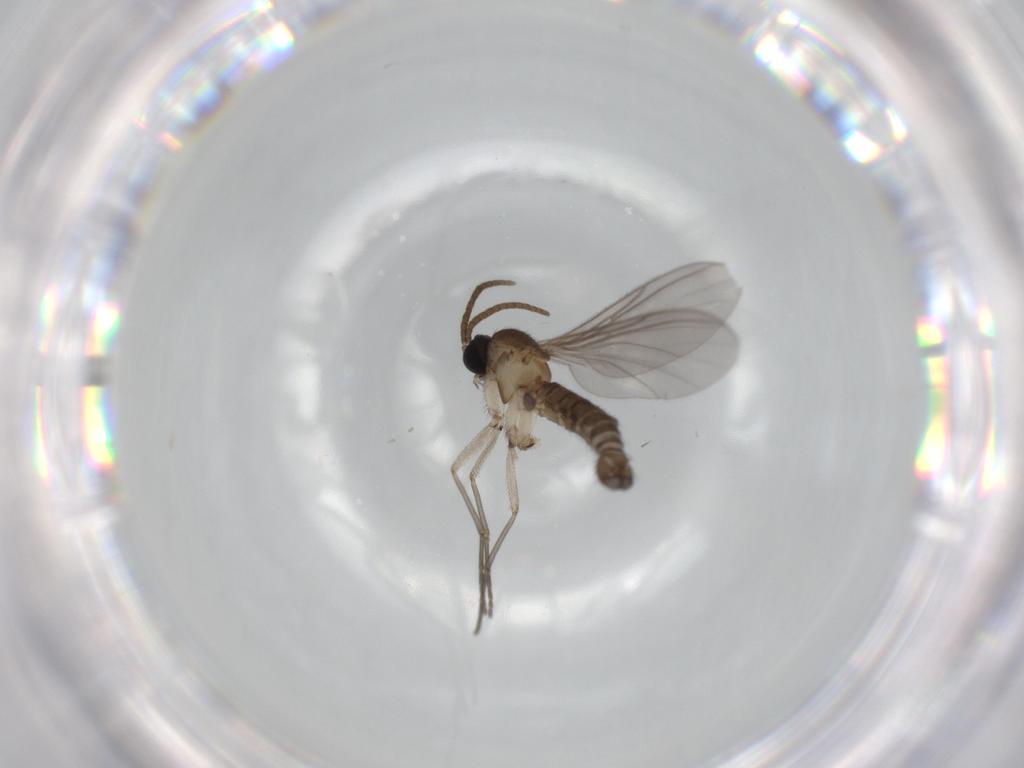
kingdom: Animalia
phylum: Arthropoda
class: Insecta
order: Diptera
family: Sciaridae
